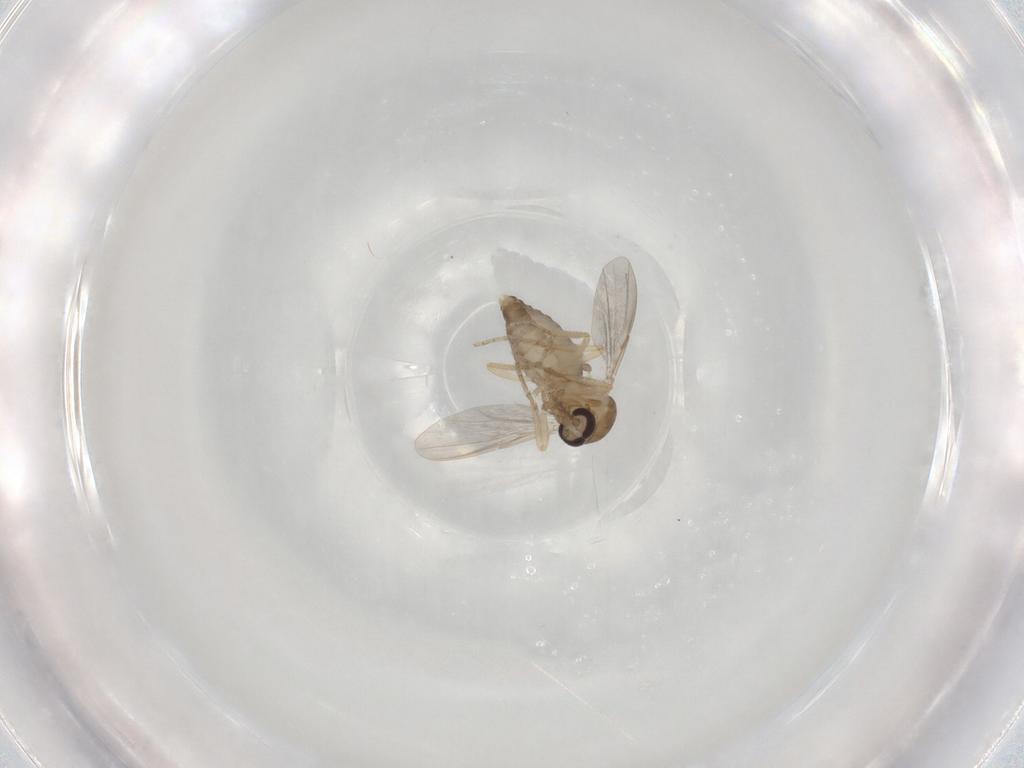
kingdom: Animalia
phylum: Arthropoda
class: Insecta
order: Diptera
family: Ceratopogonidae
